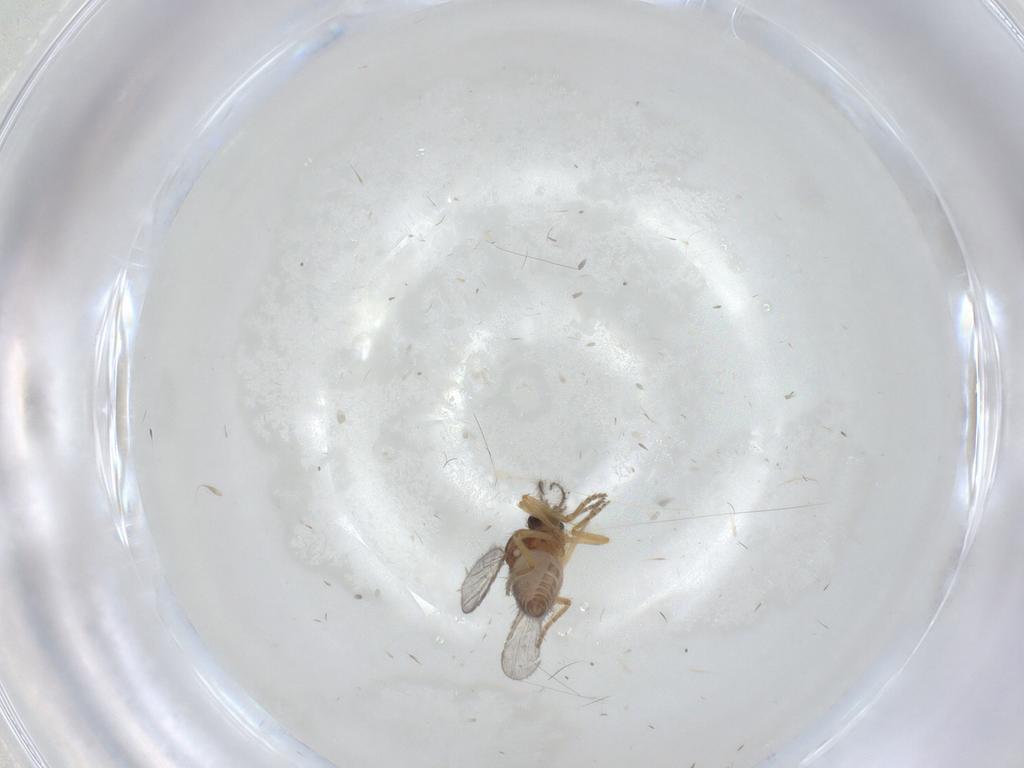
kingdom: Animalia
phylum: Arthropoda
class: Insecta
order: Diptera
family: Ceratopogonidae
